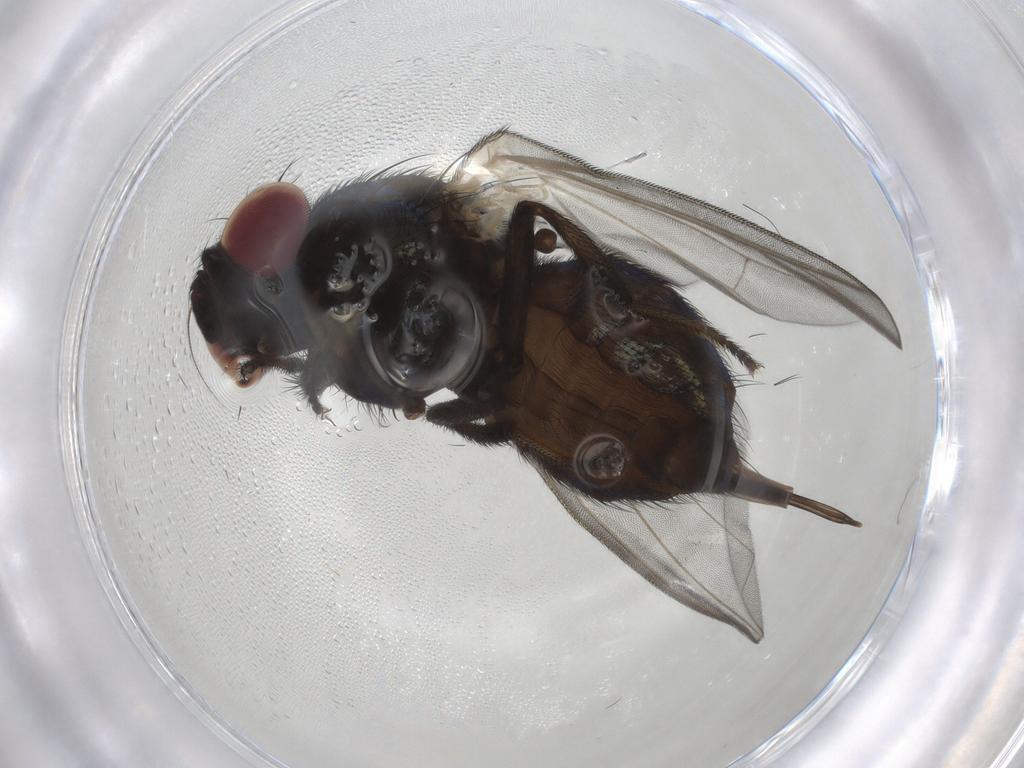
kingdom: Animalia
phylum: Arthropoda
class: Insecta
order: Diptera
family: Lonchaeidae
